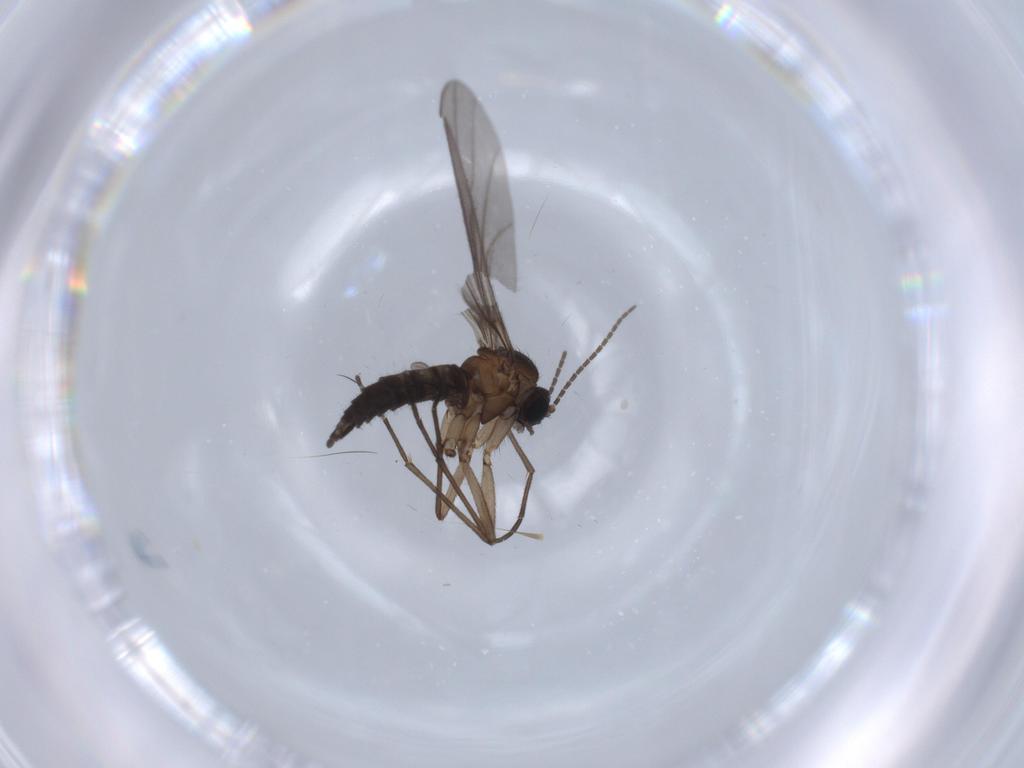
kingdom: Animalia
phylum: Arthropoda
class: Insecta
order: Diptera
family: Sciaridae
